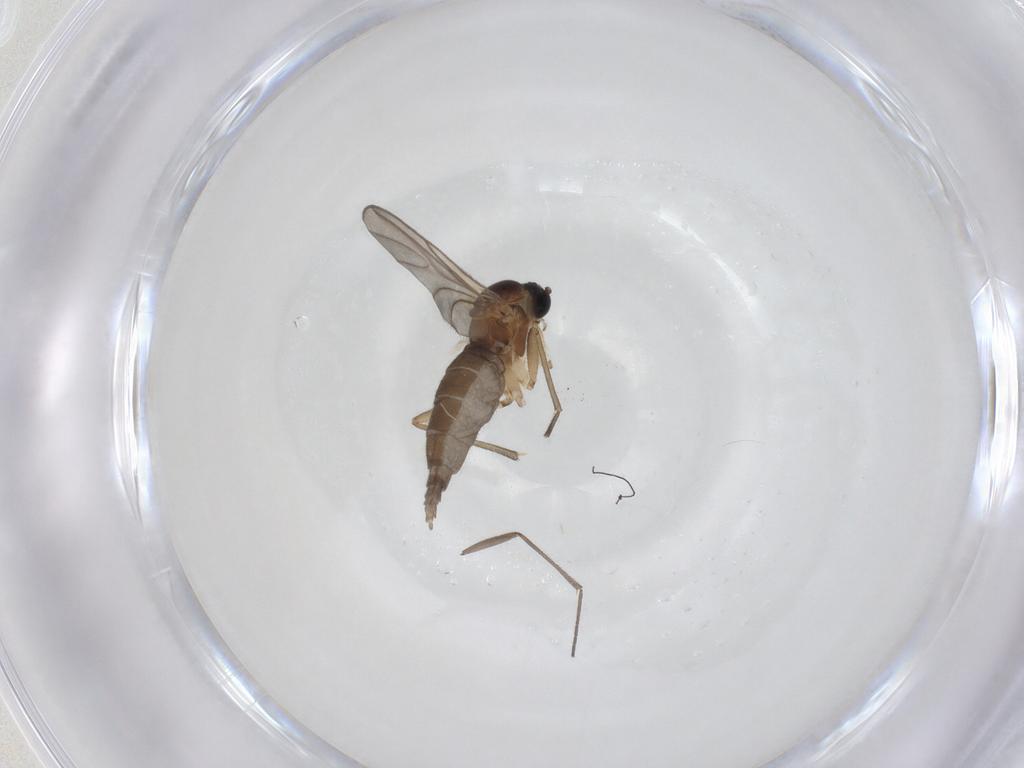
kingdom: Animalia
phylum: Arthropoda
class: Insecta
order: Diptera
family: Sciaridae
